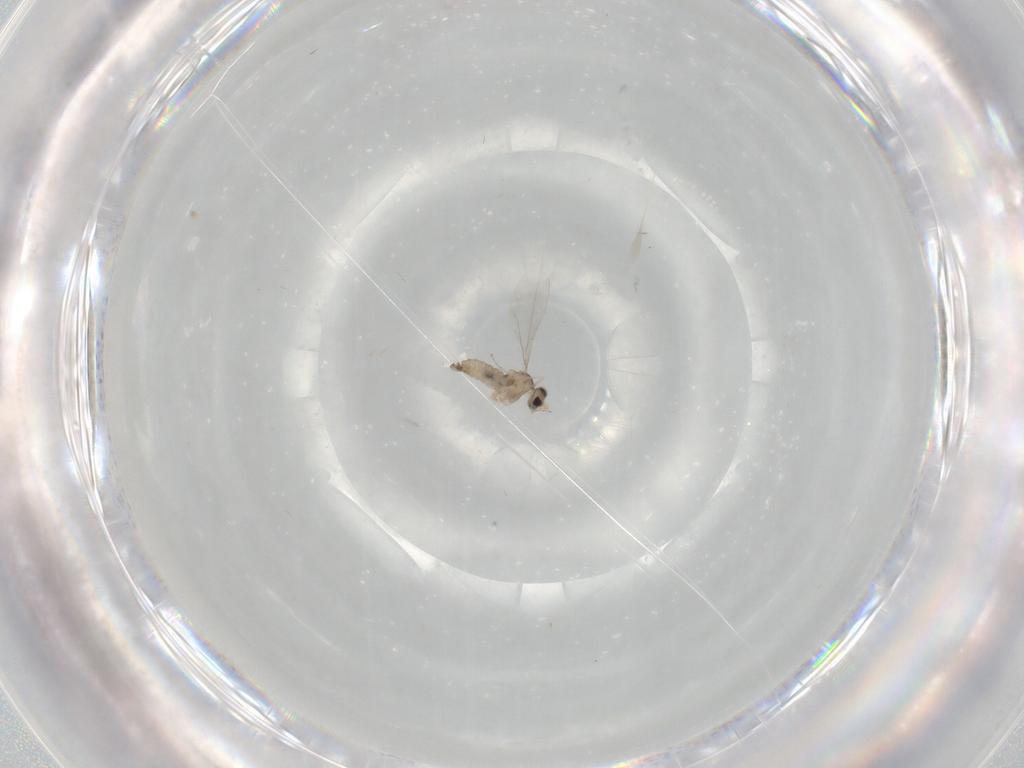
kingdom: Animalia
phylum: Arthropoda
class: Insecta
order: Diptera
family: Cecidomyiidae
